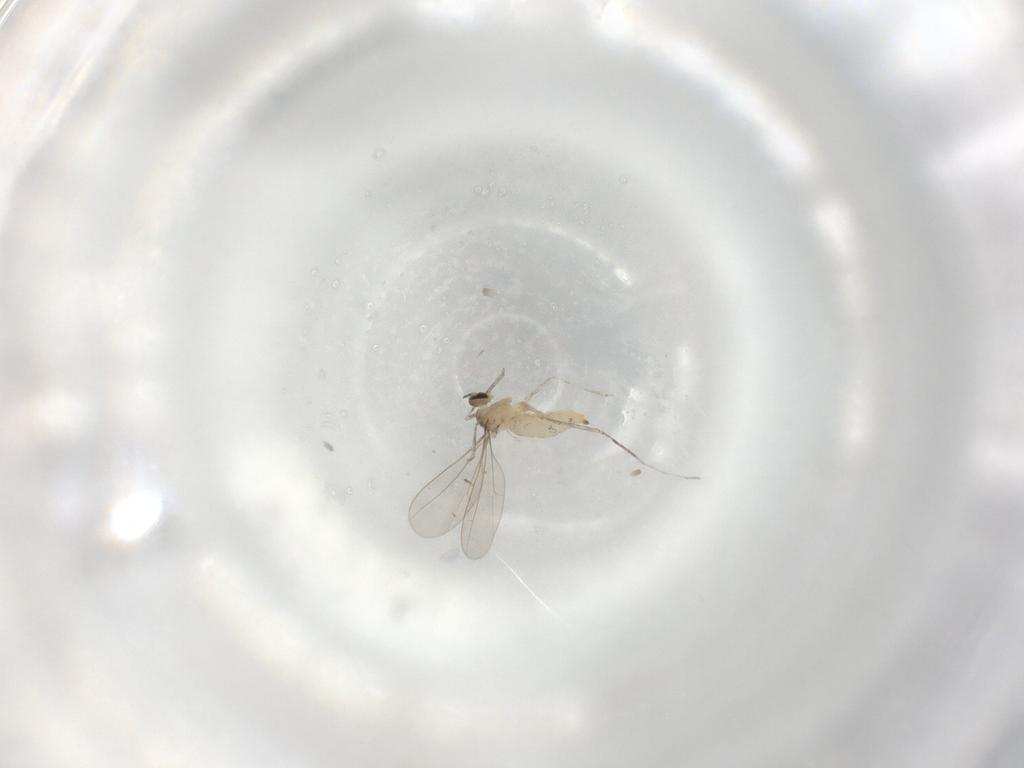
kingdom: Animalia
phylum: Arthropoda
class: Insecta
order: Diptera
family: Cecidomyiidae
